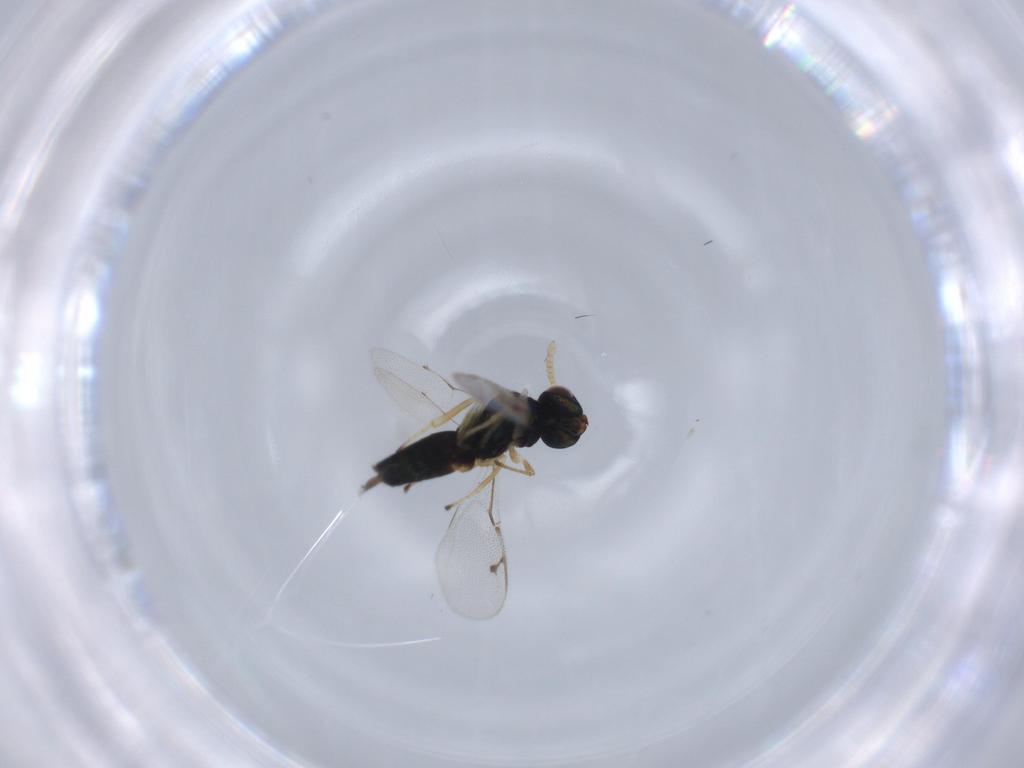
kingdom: Animalia
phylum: Arthropoda
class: Insecta
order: Hymenoptera
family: Pirenidae
